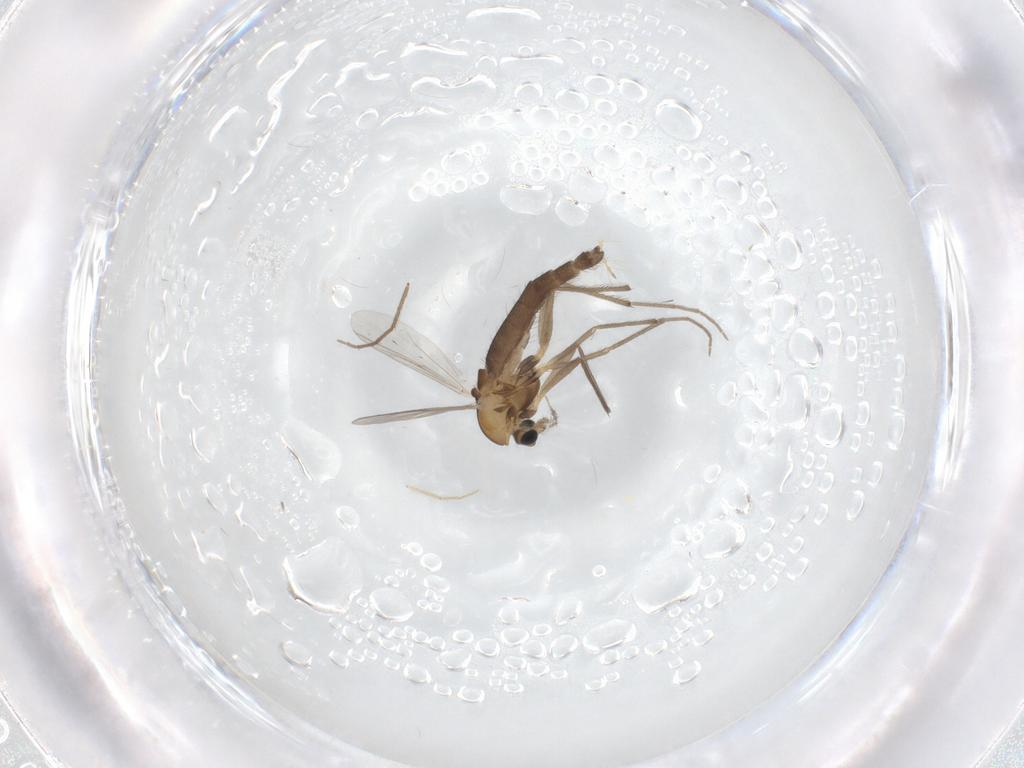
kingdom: Animalia
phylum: Arthropoda
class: Insecta
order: Diptera
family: Chironomidae
